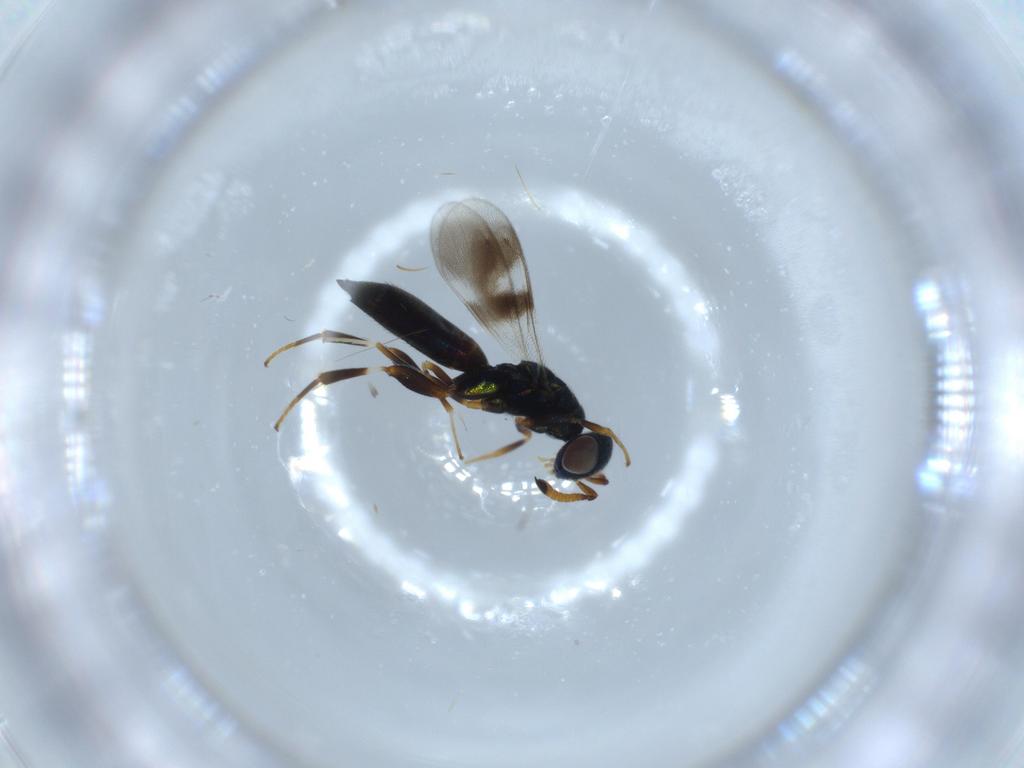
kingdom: Animalia
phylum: Arthropoda
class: Insecta
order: Hymenoptera
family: Cleonyminae
